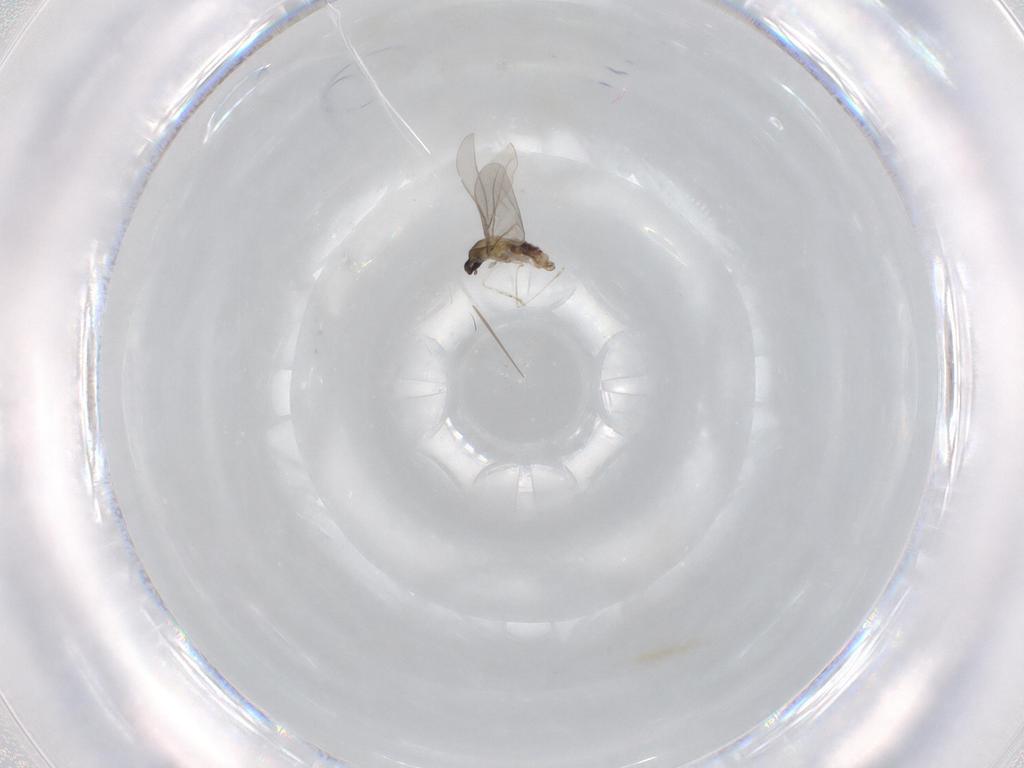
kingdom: Animalia
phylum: Arthropoda
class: Insecta
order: Diptera
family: Cecidomyiidae
